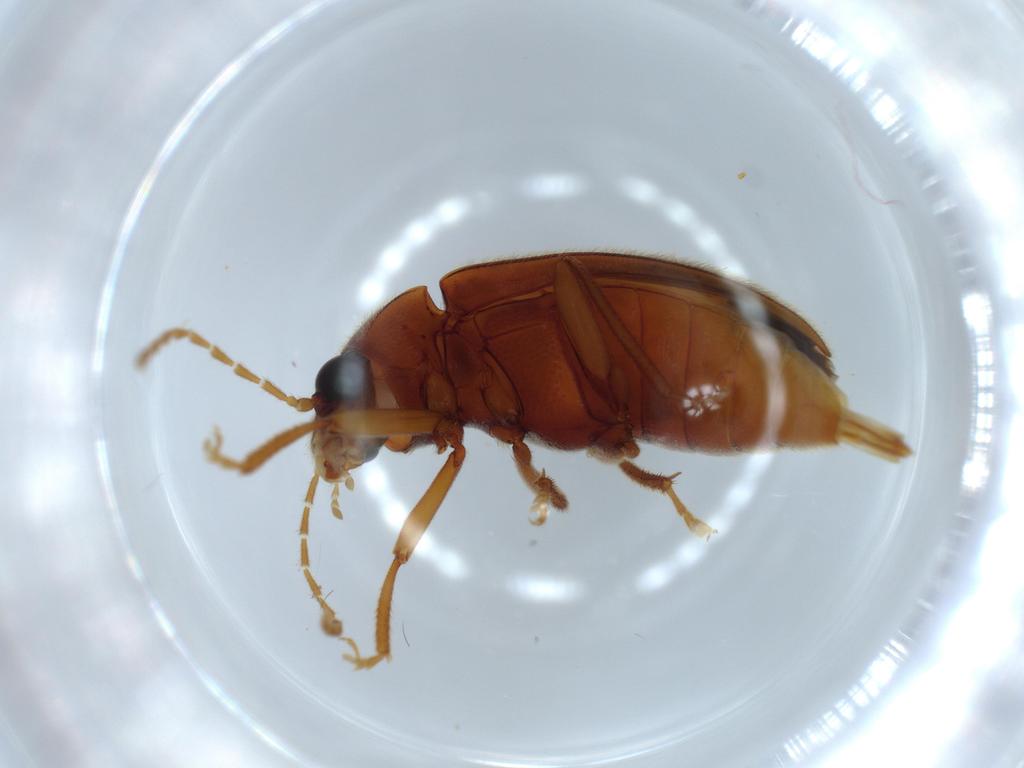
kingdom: Animalia
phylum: Arthropoda
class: Insecta
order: Coleoptera
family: Ptilodactylidae
